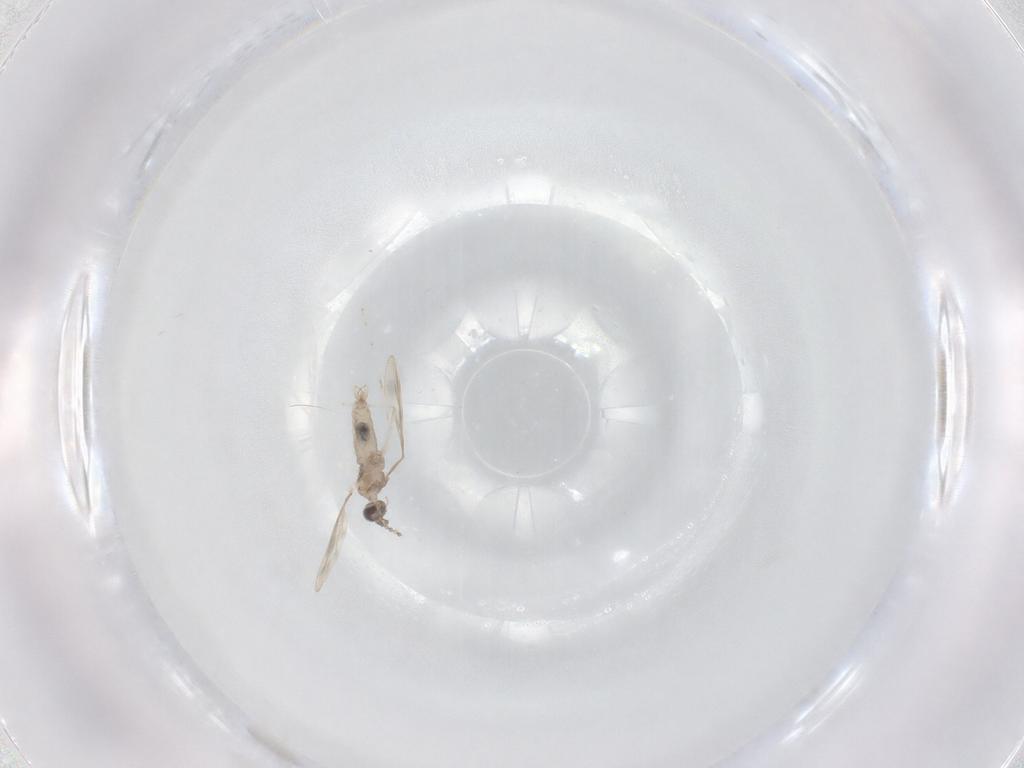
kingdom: Animalia
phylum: Arthropoda
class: Insecta
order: Diptera
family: Cecidomyiidae
